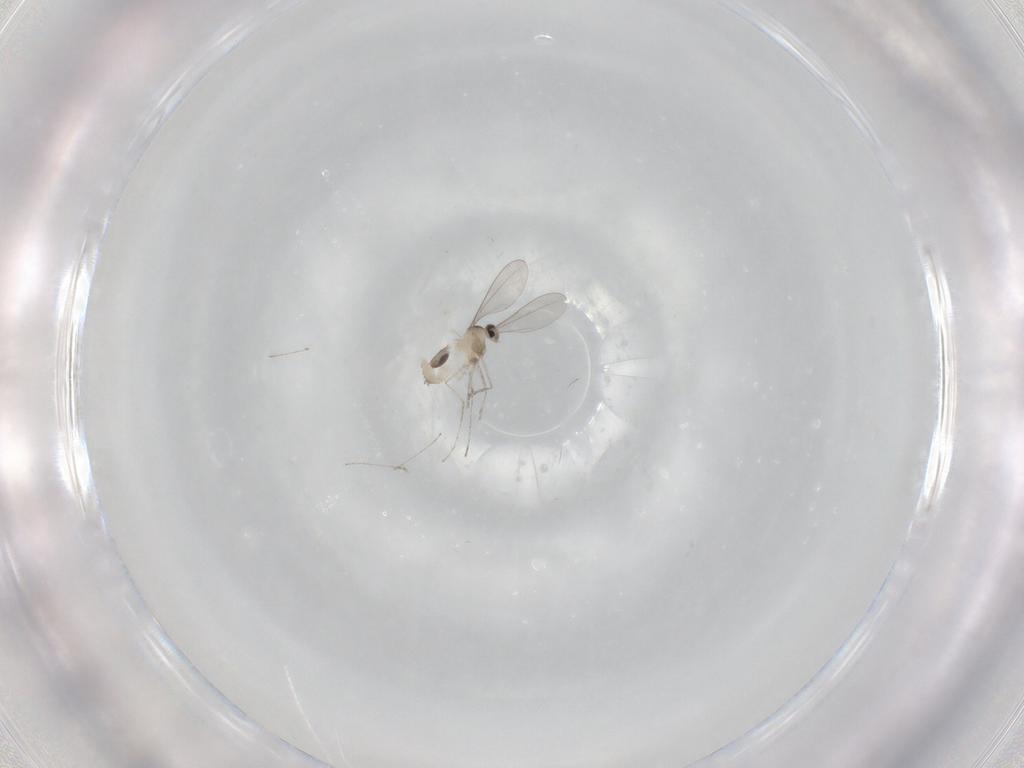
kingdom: Animalia
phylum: Arthropoda
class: Insecta
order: Diptera
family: Cecidomyiidae
